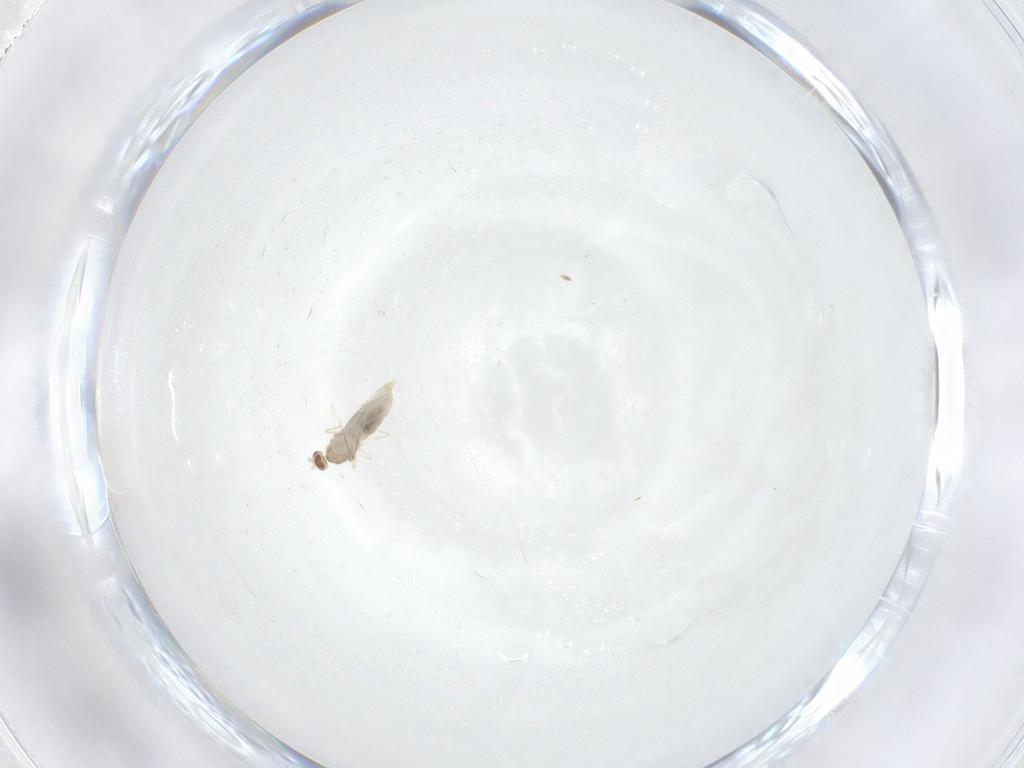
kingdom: Animalia
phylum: Arthropoda
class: Insecta
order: Diptera
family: Cecidomyiidae
